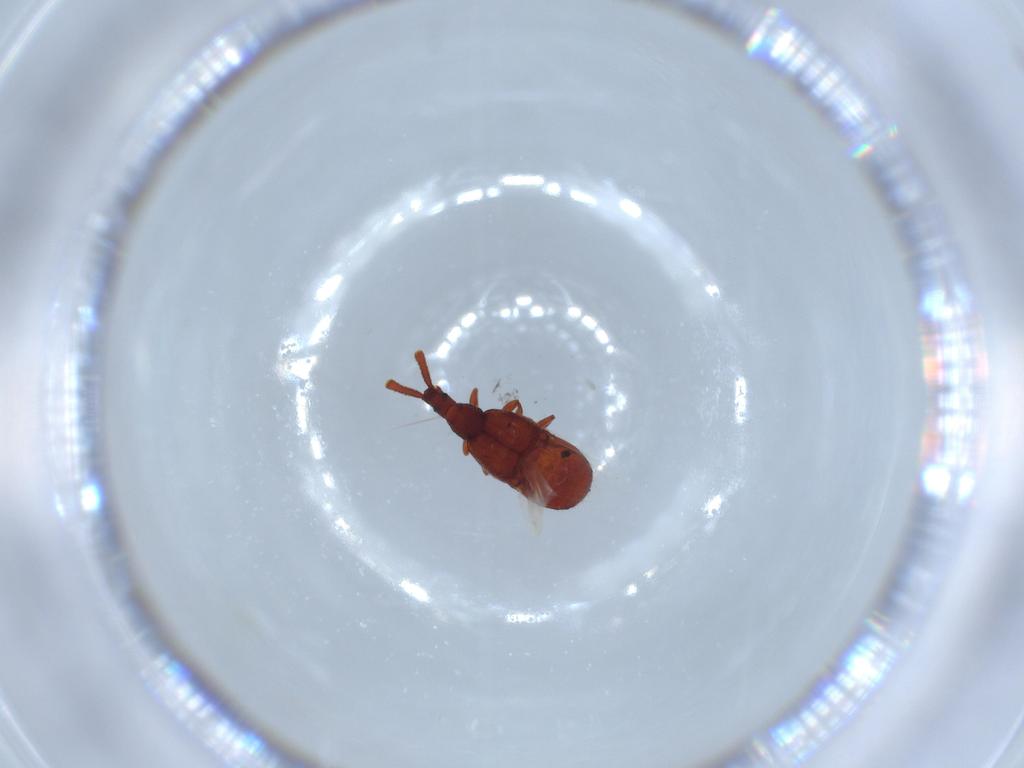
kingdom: Animalia
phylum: Arthropoda
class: Insecta
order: Coleoptera
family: Staphylinidae
